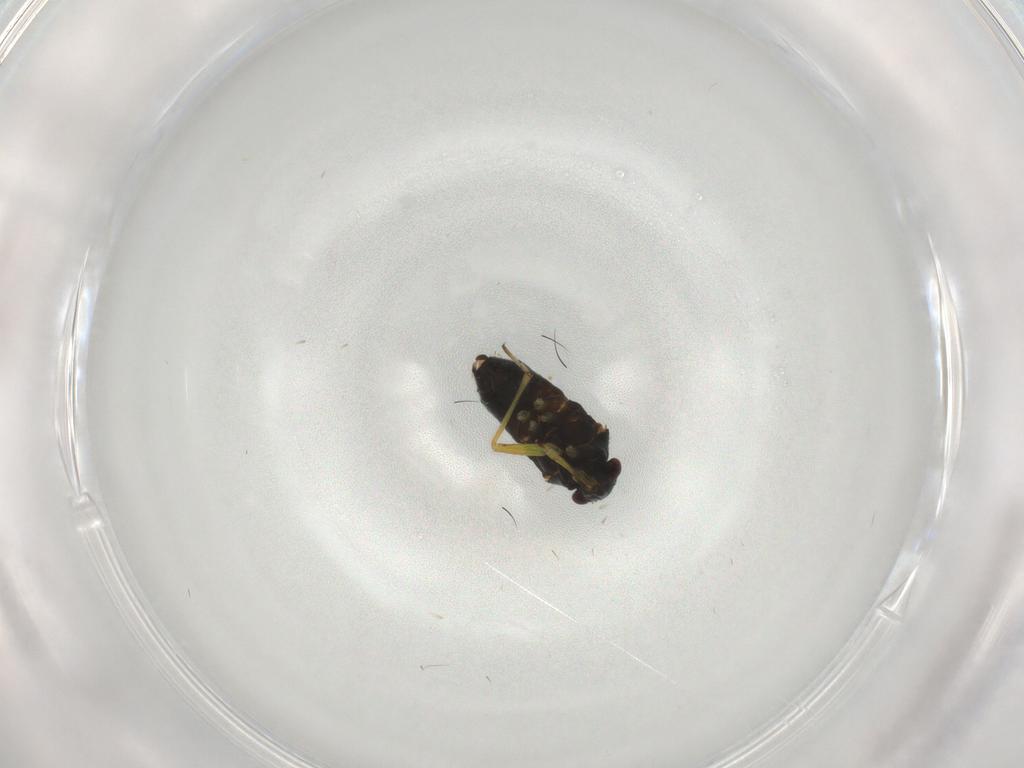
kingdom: Animalia
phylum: Arthropoda
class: Insecta
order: Hemiptera
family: Miridae
